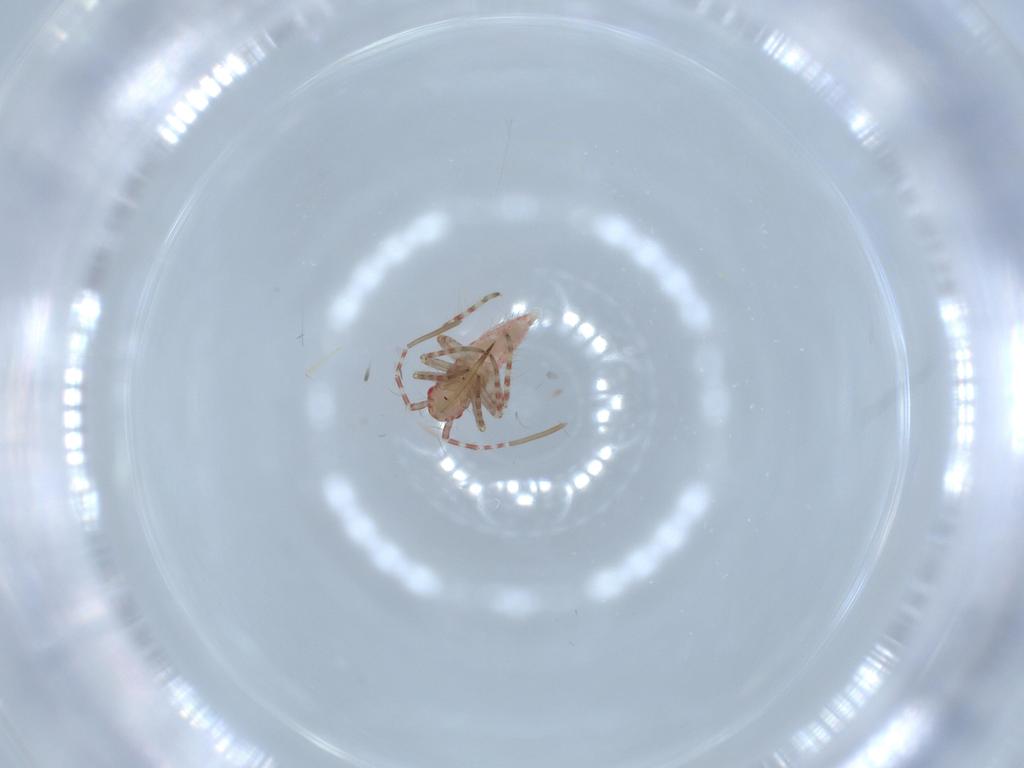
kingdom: Animalia
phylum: Arthropoda
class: Insecta
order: Hemiptera
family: Miridae
